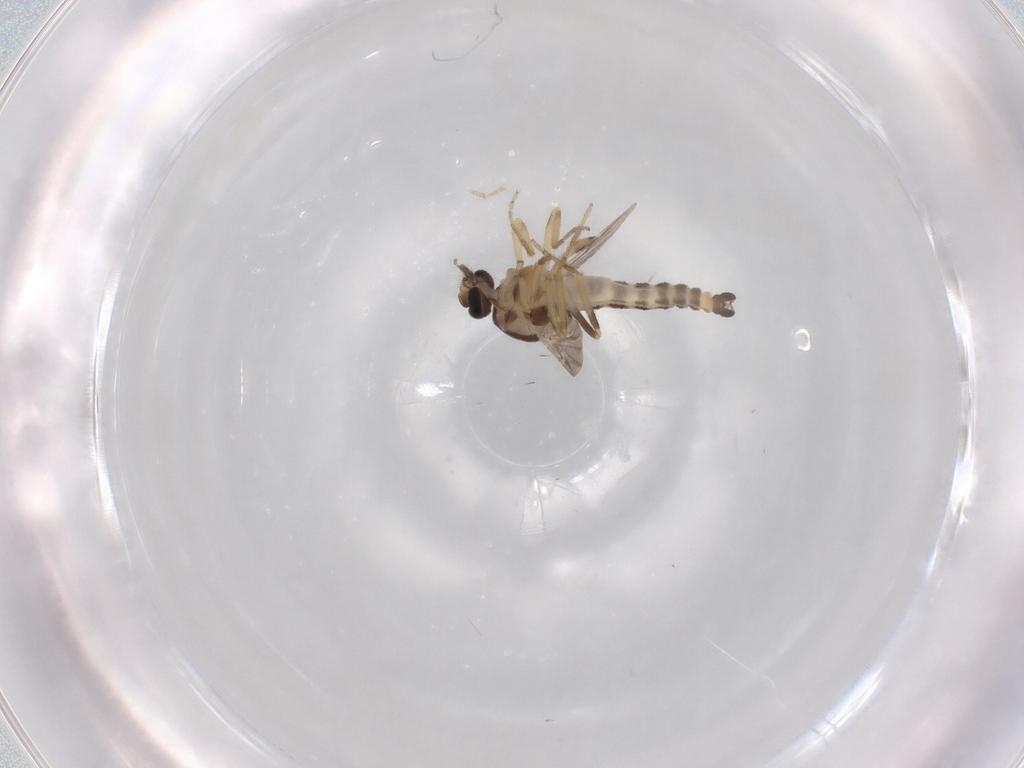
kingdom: Animalia
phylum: Arthropoda
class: Insecta
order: Diptera
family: Ceratopogonidae
